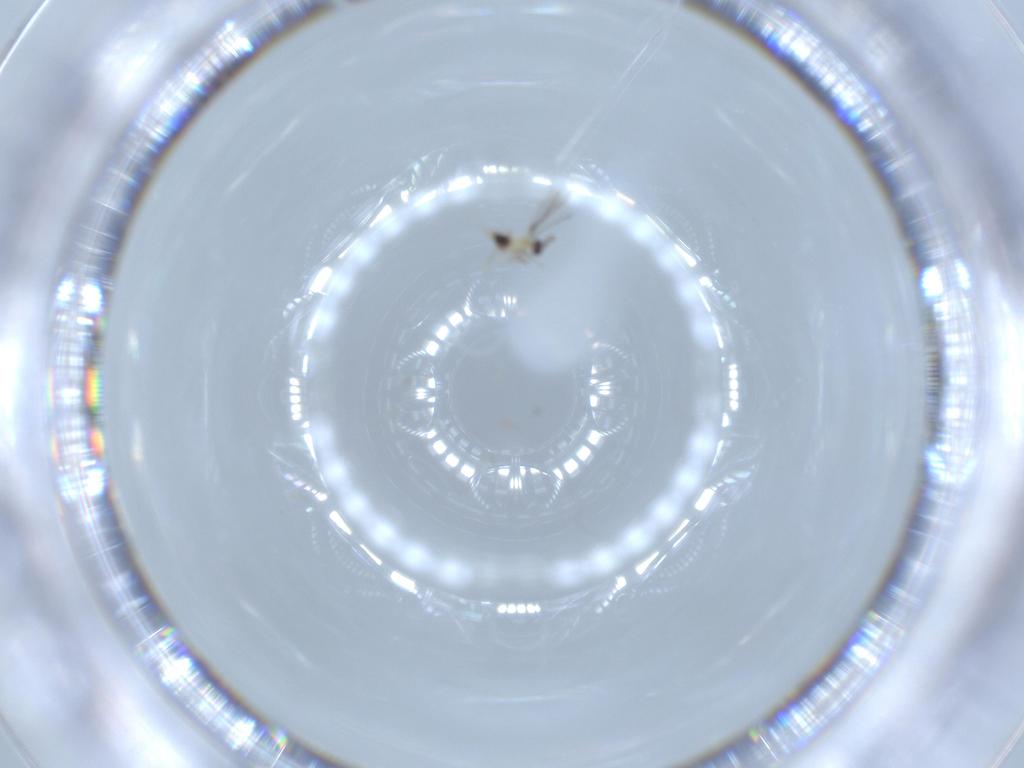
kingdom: Animalia
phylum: Arthropoda
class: Insecta
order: Hymenoptera
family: Mymaridae
